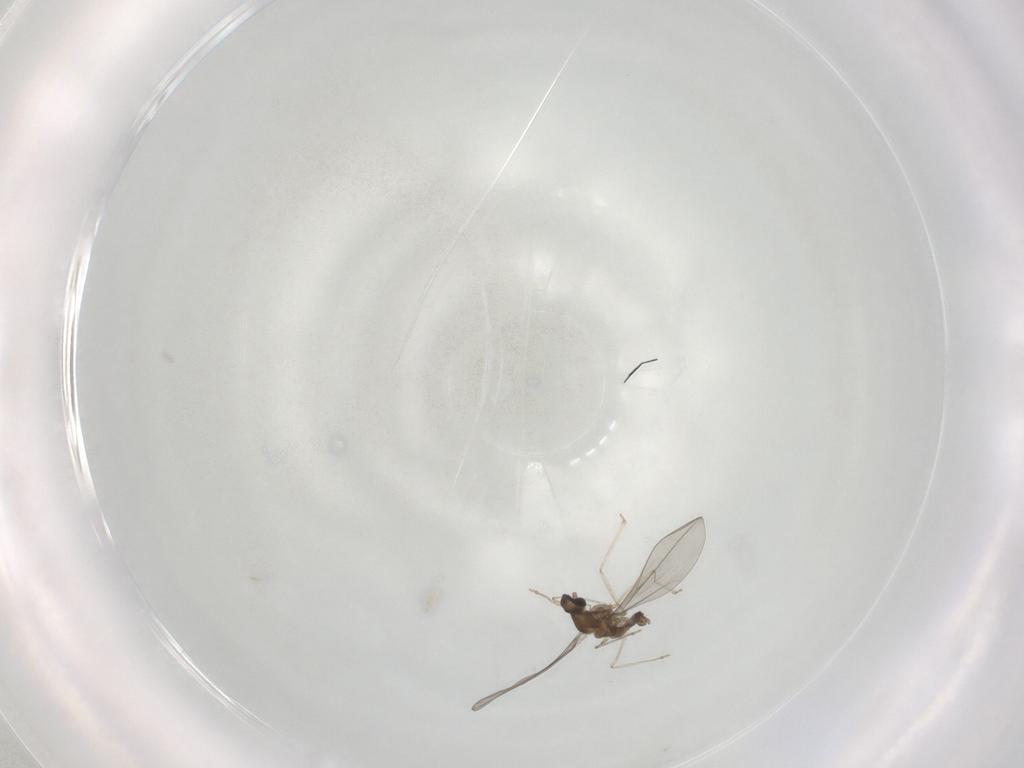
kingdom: Animalia
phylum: Arthropoda
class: Insecta
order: Diptera
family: Cecidomyiidae
